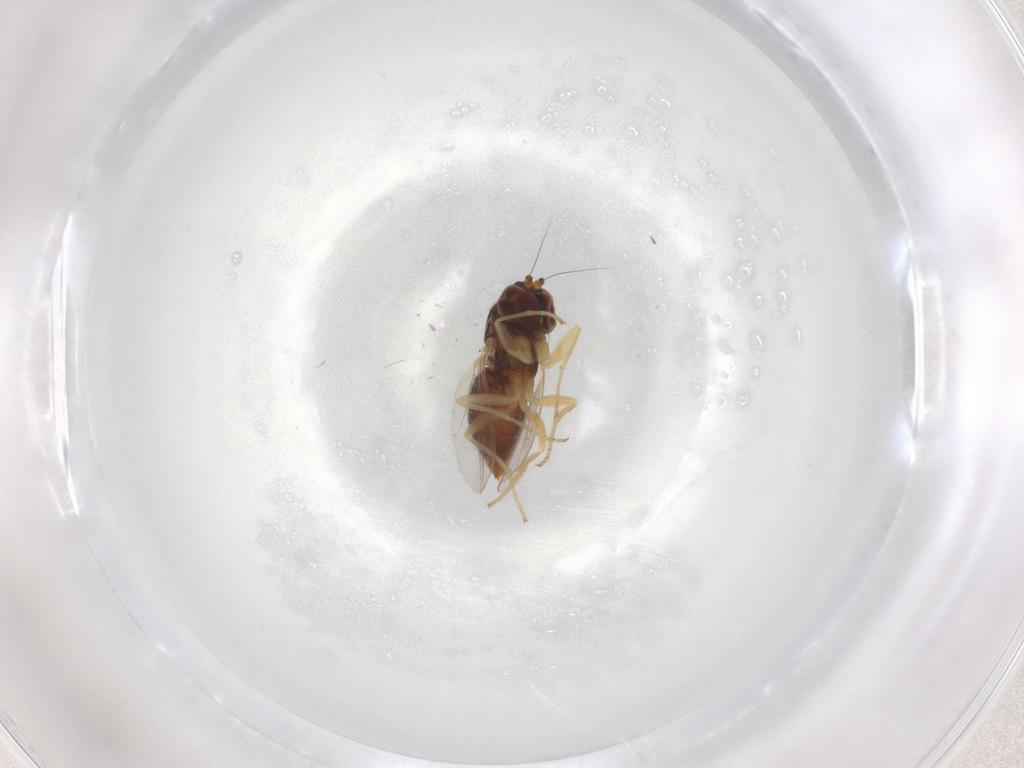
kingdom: Animalia
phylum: Arthropoda
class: Insecta
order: Diptera
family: Dolichopodidae
